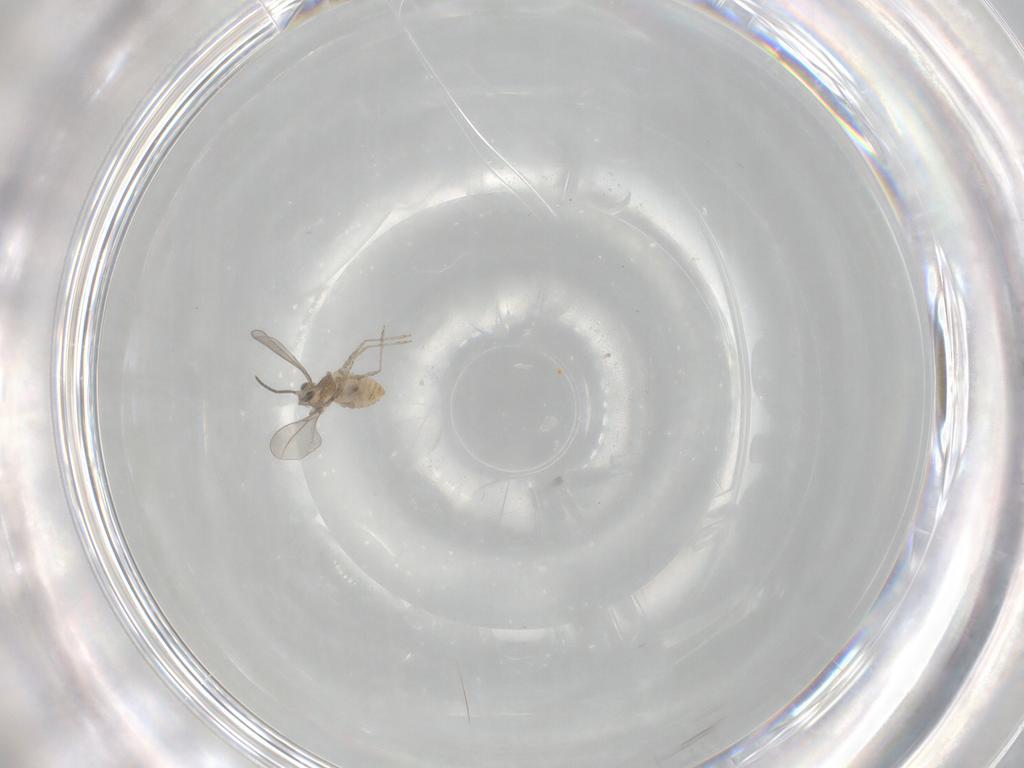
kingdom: Animalia
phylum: Arthropoda
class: Insecta
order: Diptera
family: Cecidomyiidae
